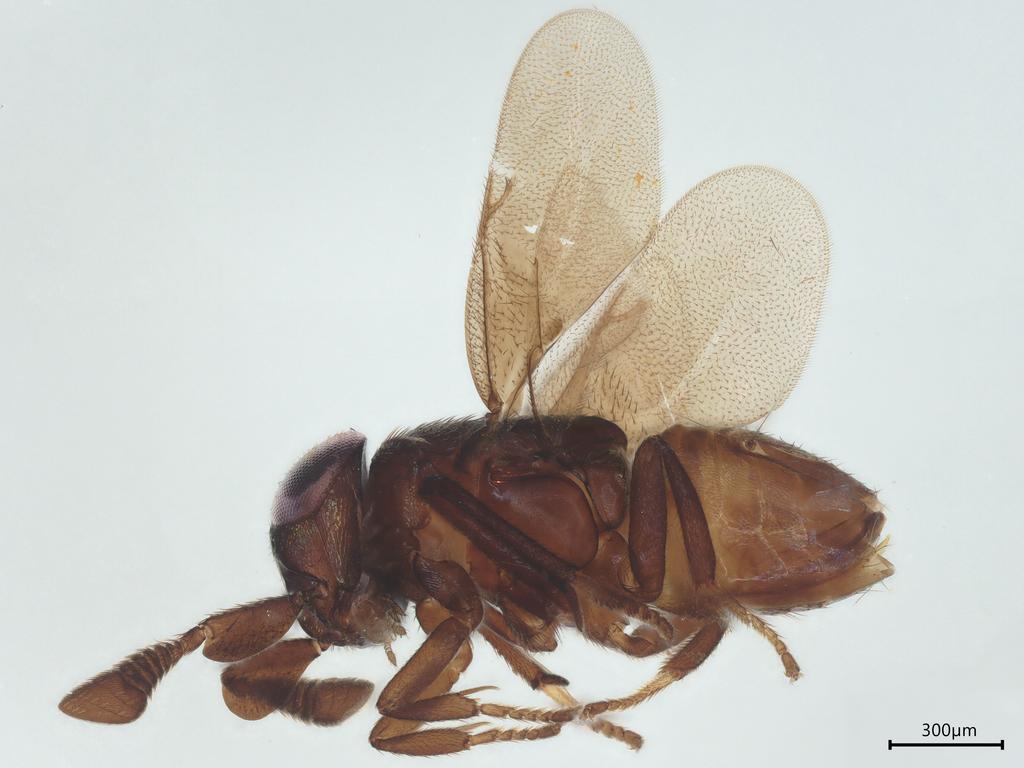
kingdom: Animalia
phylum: Arthropoda
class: Insecta
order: Hymenoptera
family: Encyrtidae
